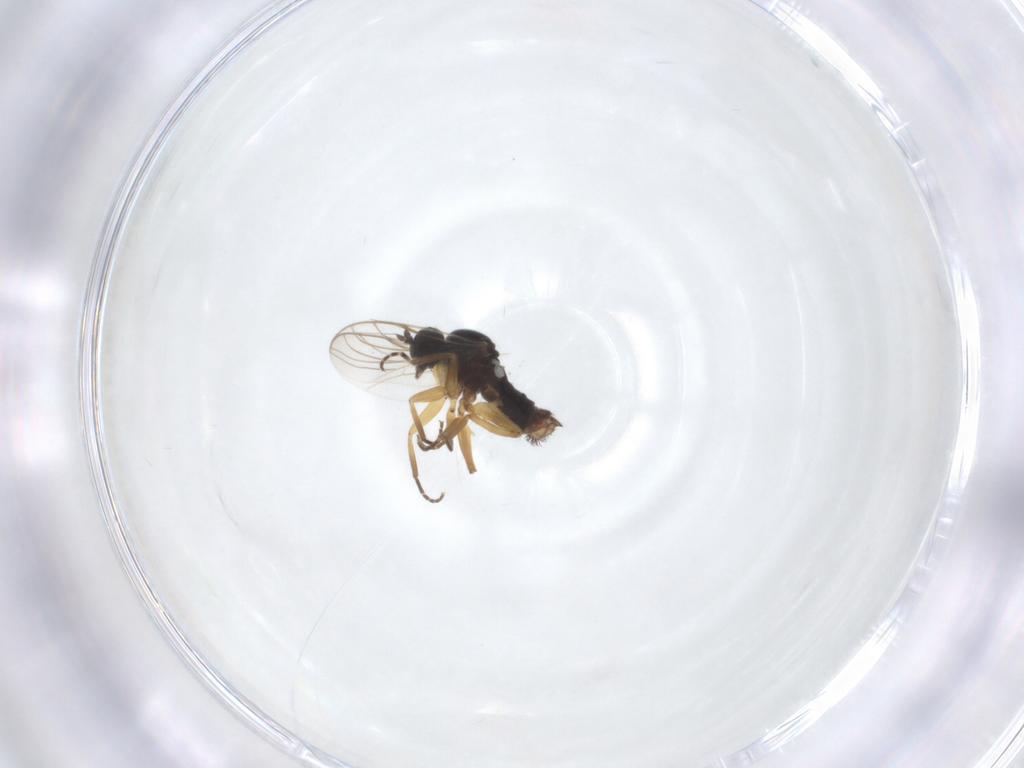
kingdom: Animalia
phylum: Arthropoda
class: Insecta
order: Diptera
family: Hybotidae
